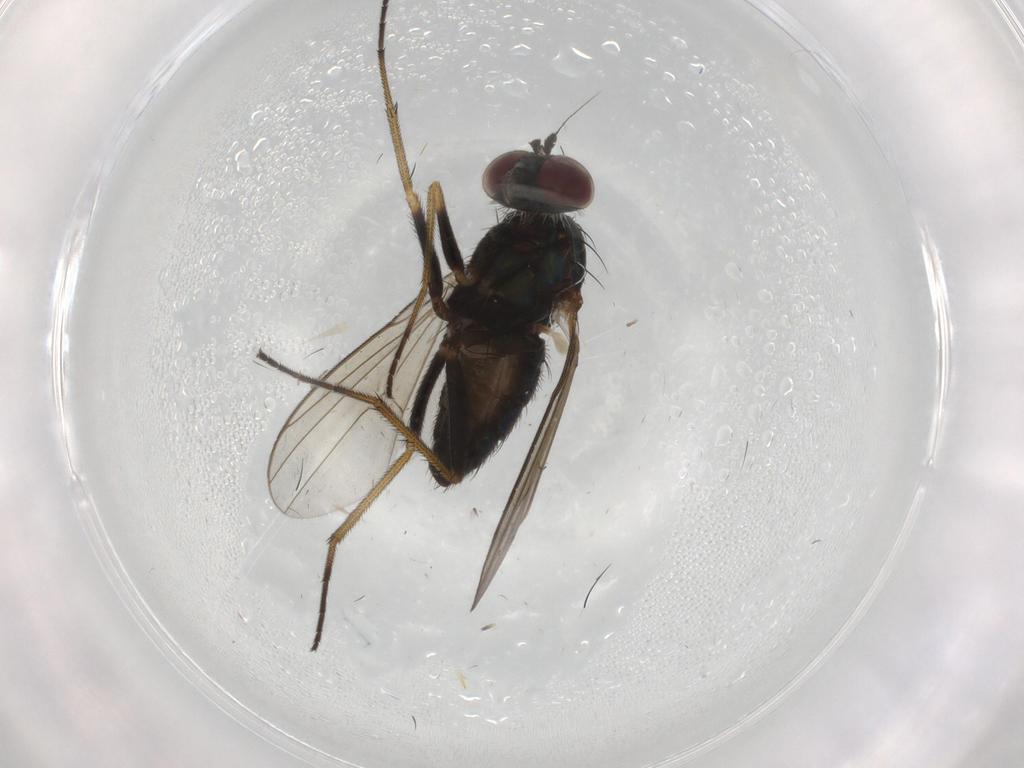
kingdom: Animalia
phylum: Arthropoda
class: Insecta
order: Diptera
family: Dolichopodidae
